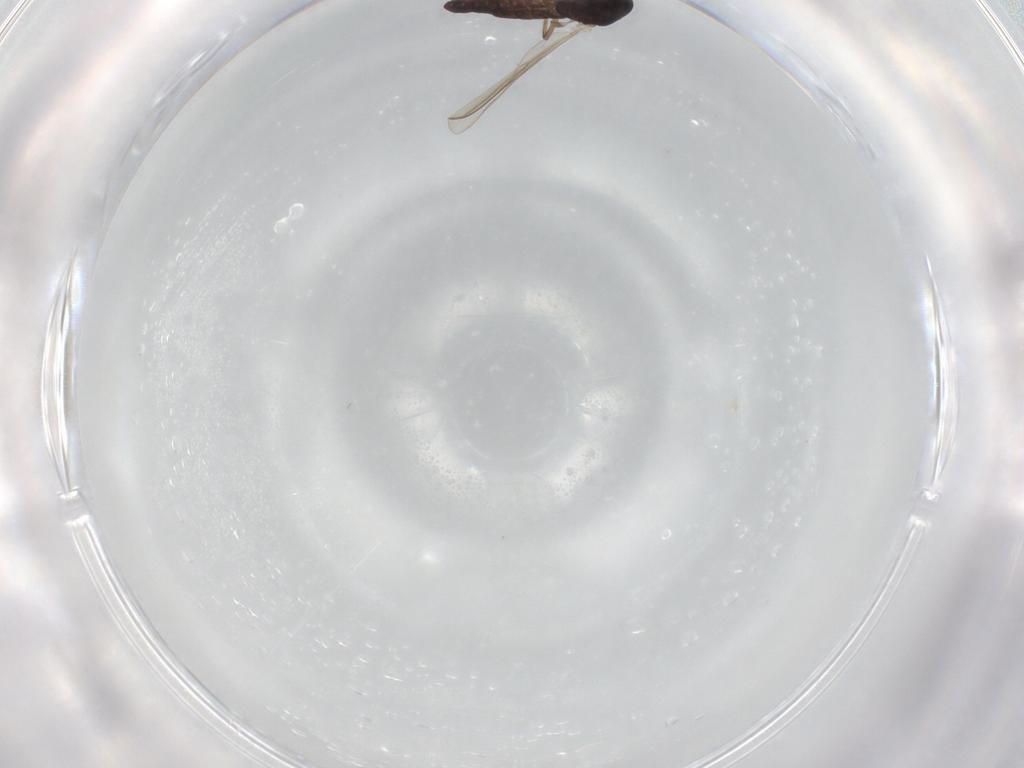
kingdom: Animalia
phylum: Arthropoda
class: Insecta
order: Diptera
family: Chironomidae
